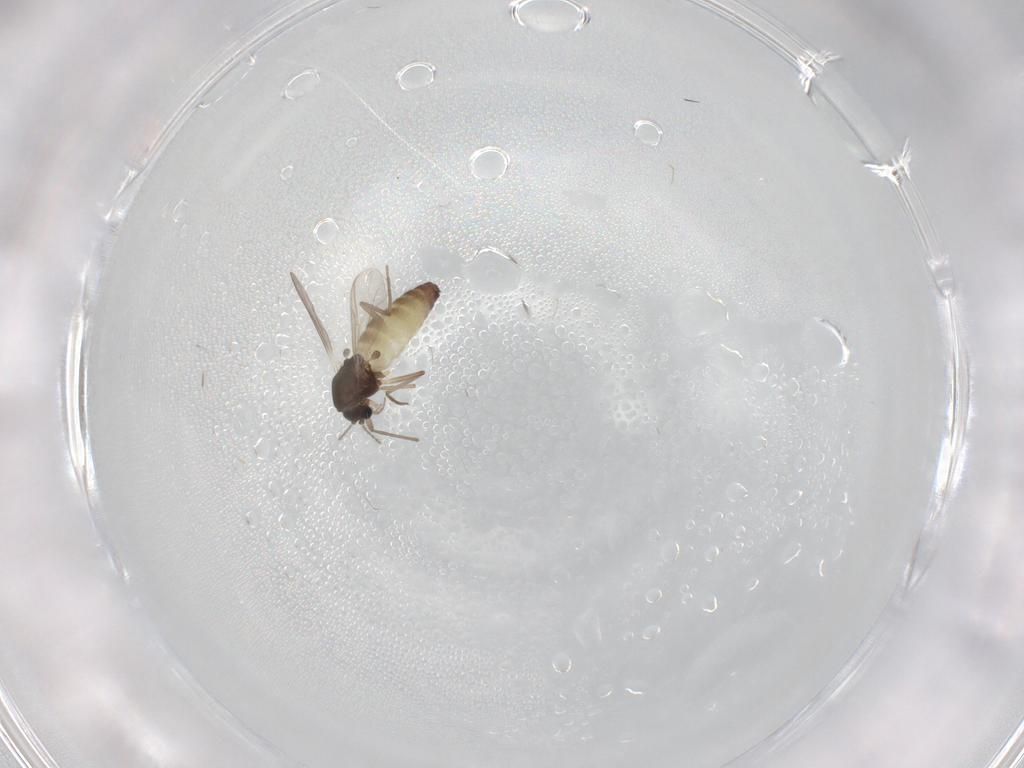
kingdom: Animalia
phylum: Arthropoda
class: Insecta
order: Diptera
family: Chironomidae
